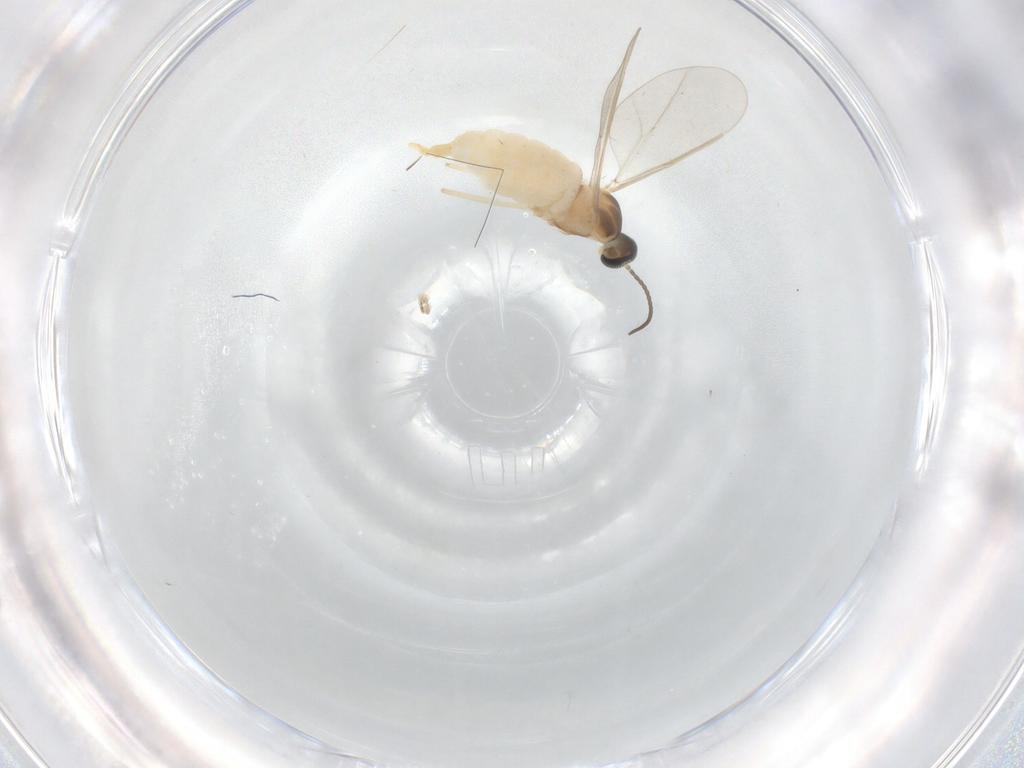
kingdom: Animalia
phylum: Arthropoda
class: Insecta
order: Diptera
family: Cecidomyiidae
